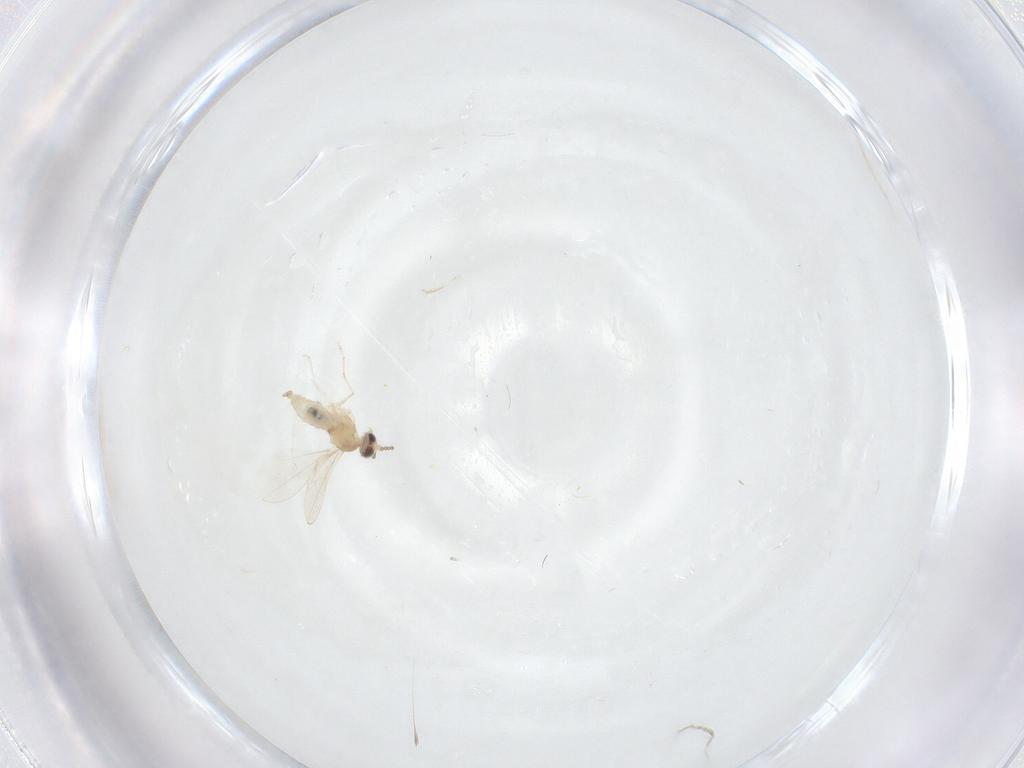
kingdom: Animalia
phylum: Arthropoda
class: Insecta
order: Diptera
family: Cecidomyiidae
